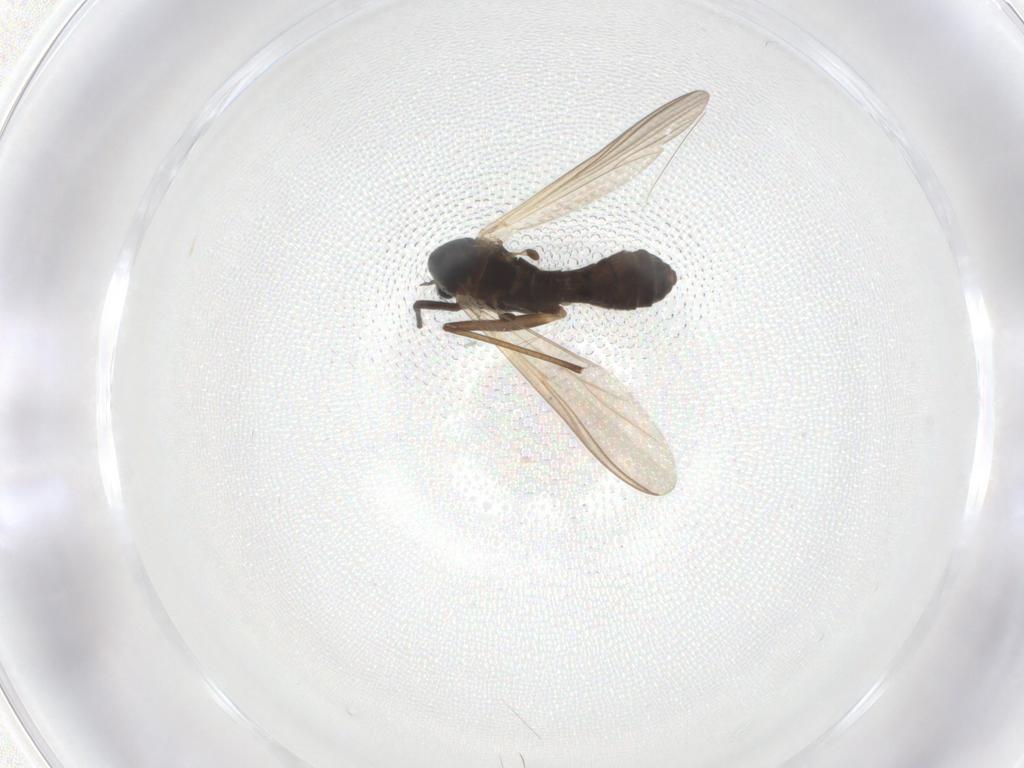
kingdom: Animalia
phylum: Arthropoda
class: Insecta
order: Diptera
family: Chironomidae
